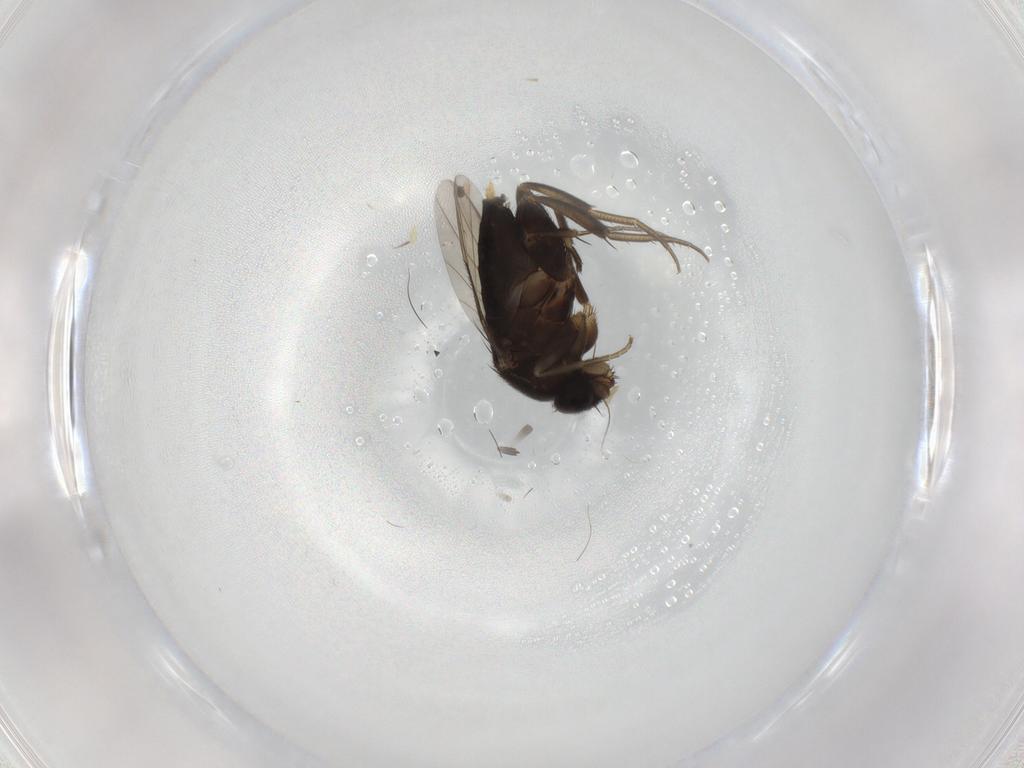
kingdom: Animalia
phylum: Arthropoda
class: Insecta
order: Diptera
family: Phoridae
